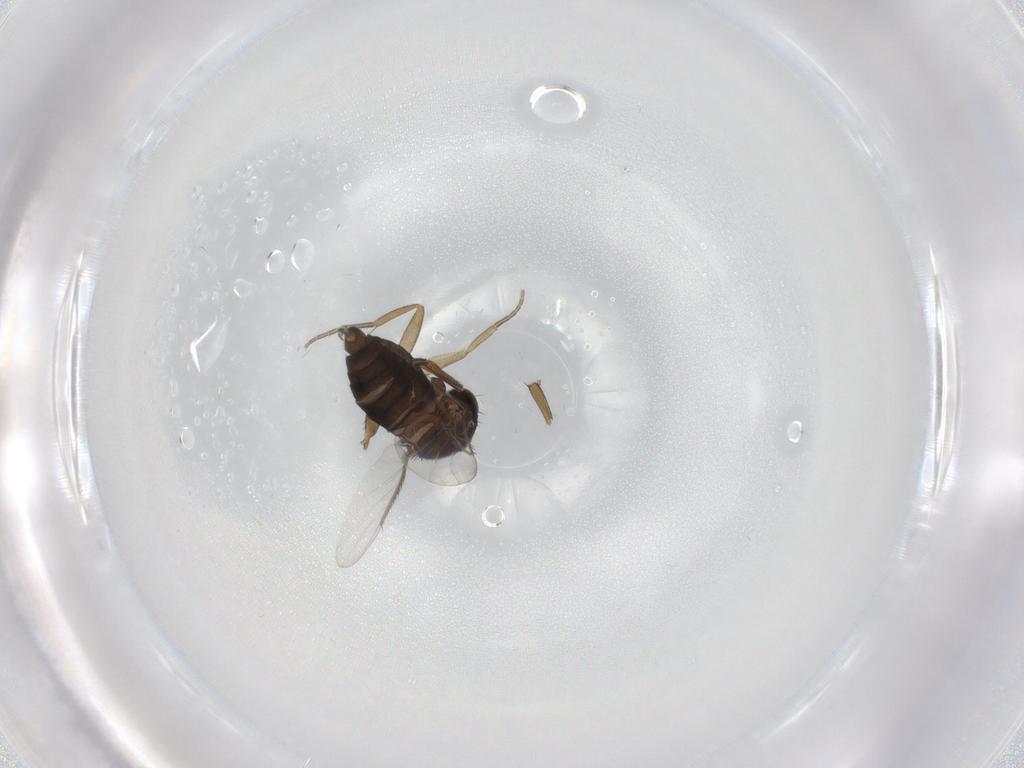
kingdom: Animalia
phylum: Arthropoda
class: Insecta
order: Diptera
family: Phoridae
